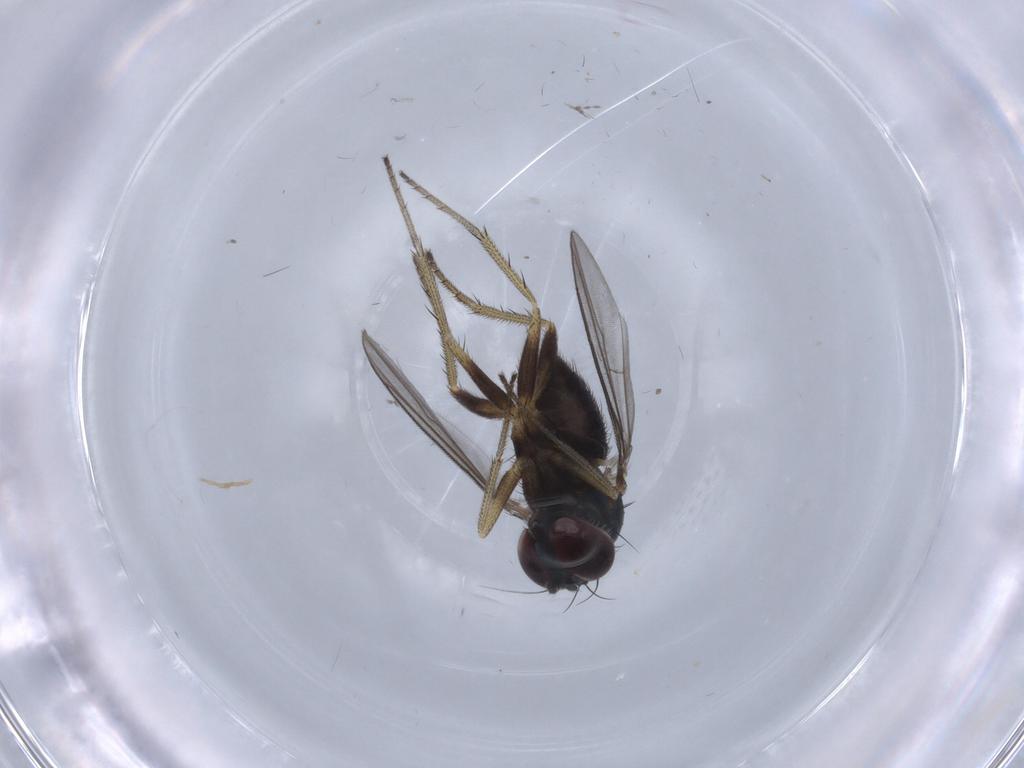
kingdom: Animalia
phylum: Arthropoda
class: Insecta
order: Diptera
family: Dolichopodidae
